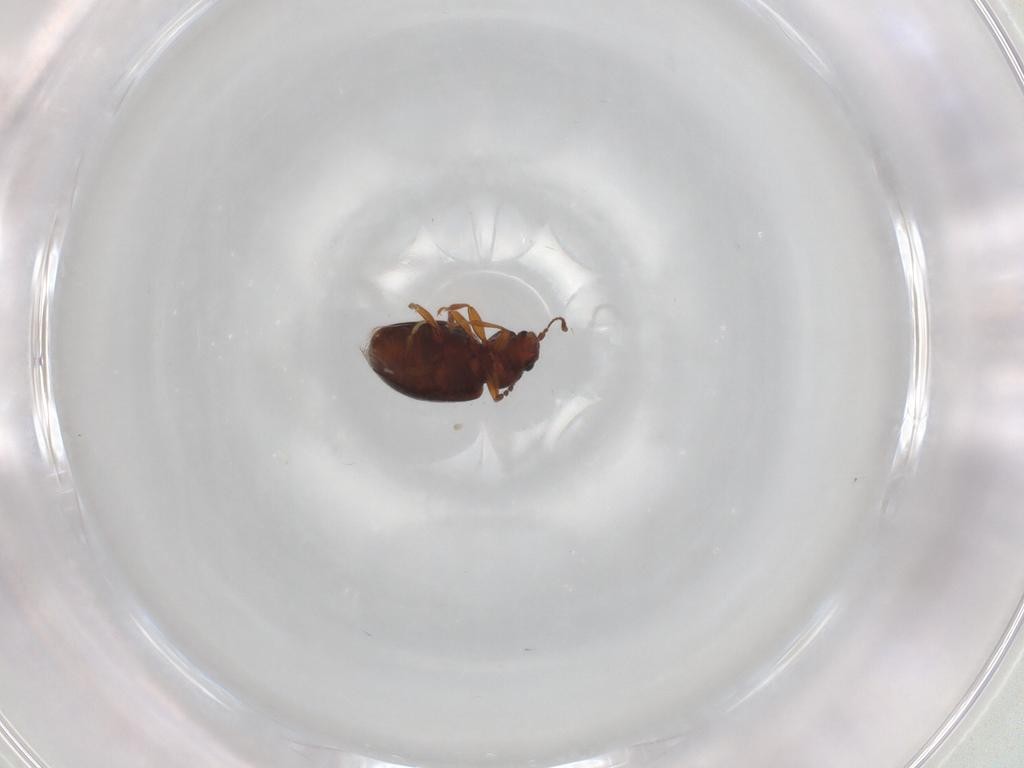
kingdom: Animalia
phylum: Arthropoda
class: Insecta
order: Coleoptera
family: Latridiidae
